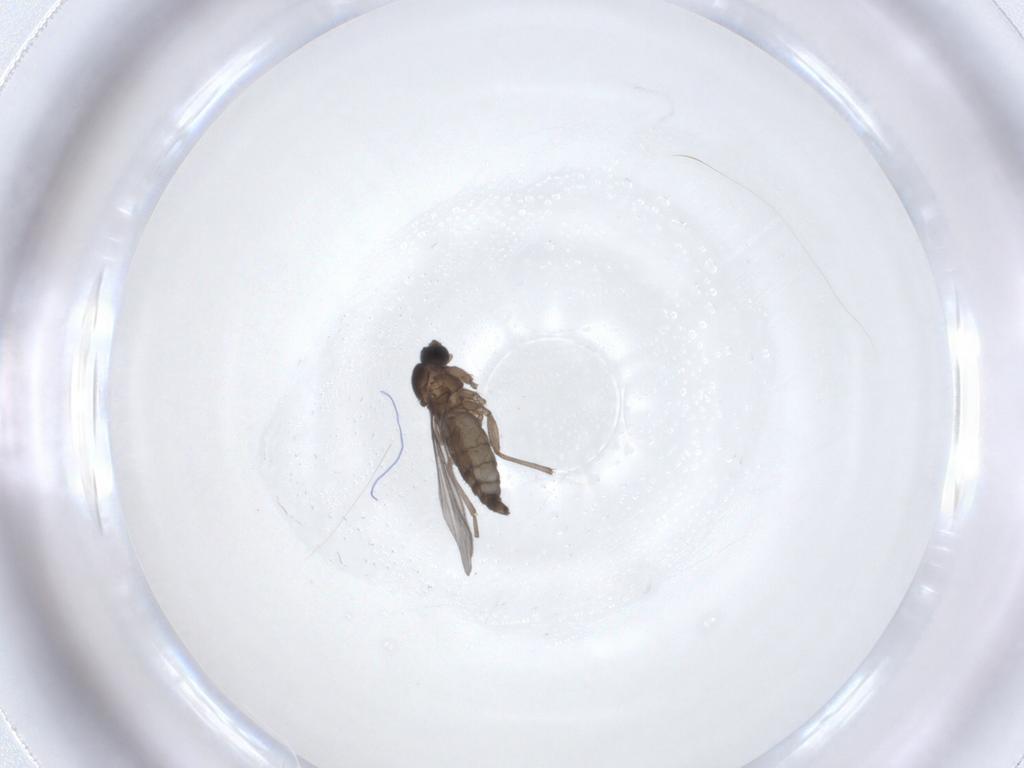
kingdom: Animalia
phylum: Arthropoda
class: Insecta
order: Diptera
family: Sciaridae
